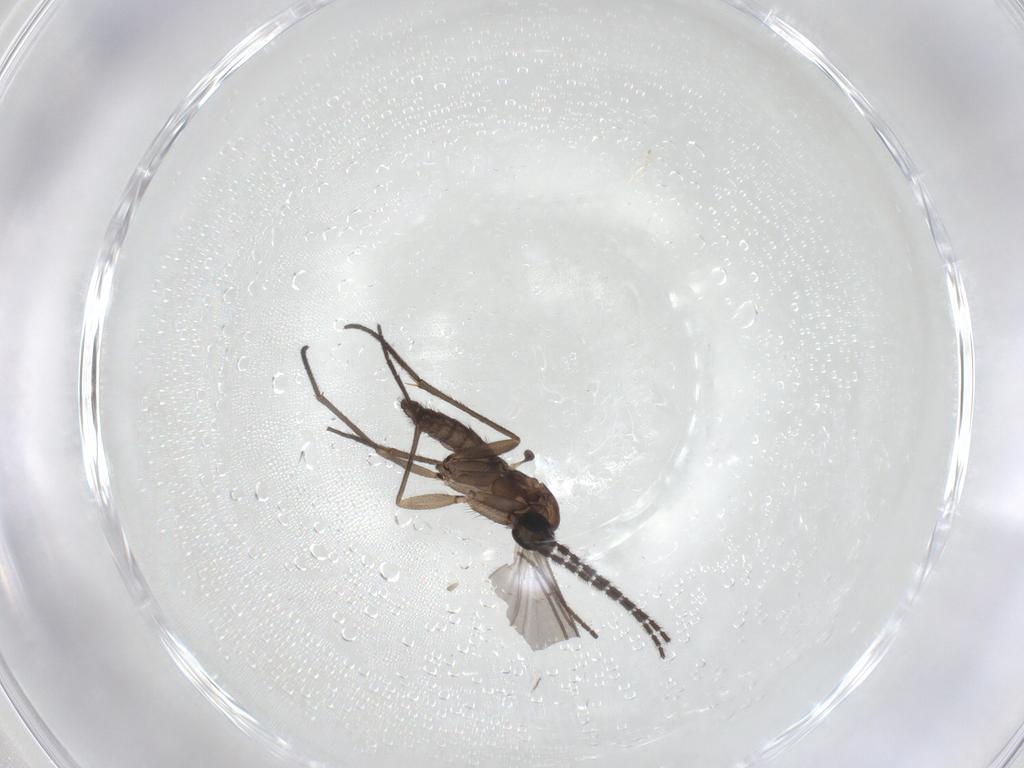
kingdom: Animalia
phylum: Arthropoda
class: Insecta
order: Diptera
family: Sciaridae
